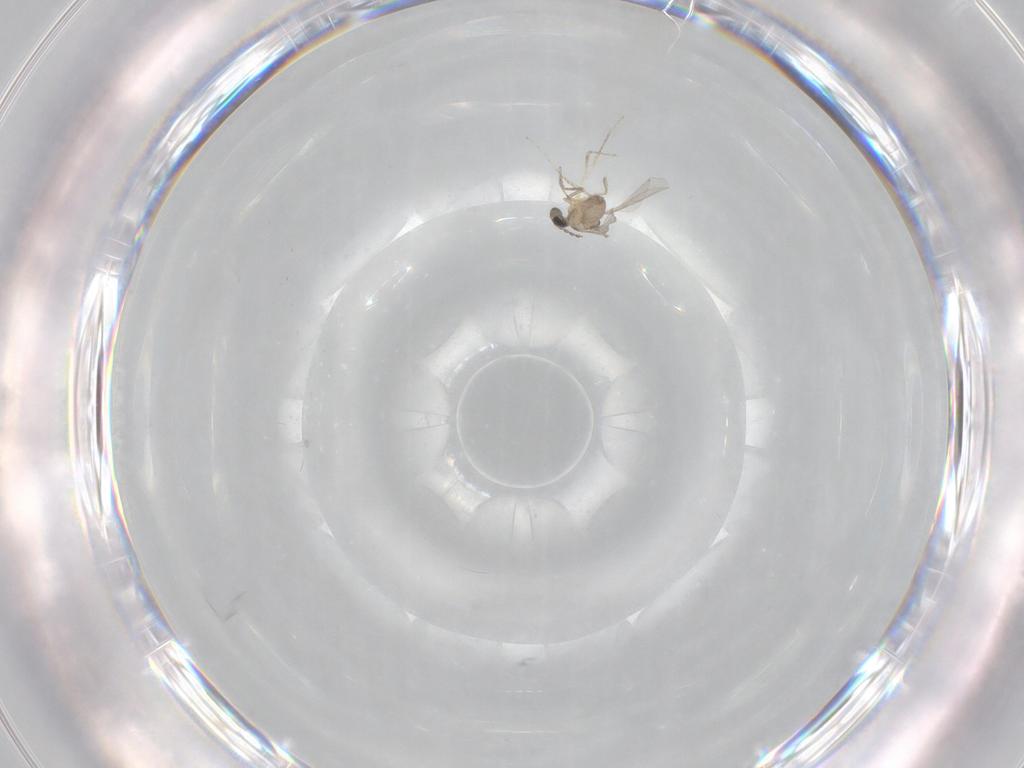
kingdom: Animalia
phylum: Arthropoda
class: Insecta
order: Diptera
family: Cecidomyiidae
